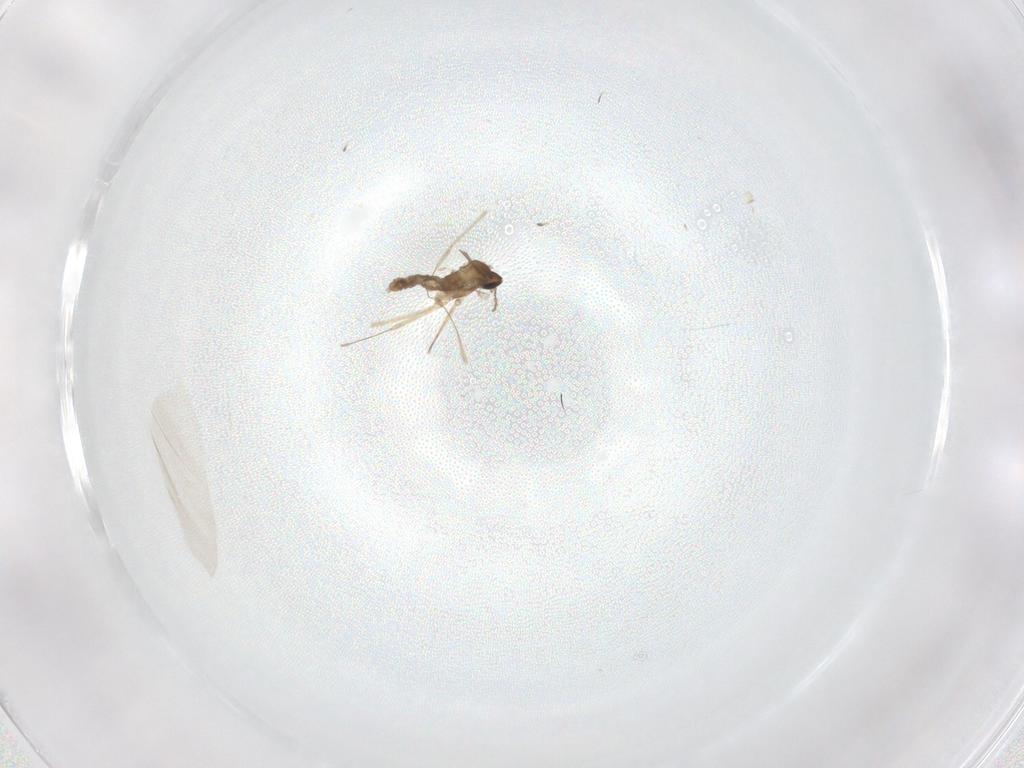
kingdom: Animalia
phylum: Arthropoda
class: Insecta
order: Diptera
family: Cecidomyiidae
